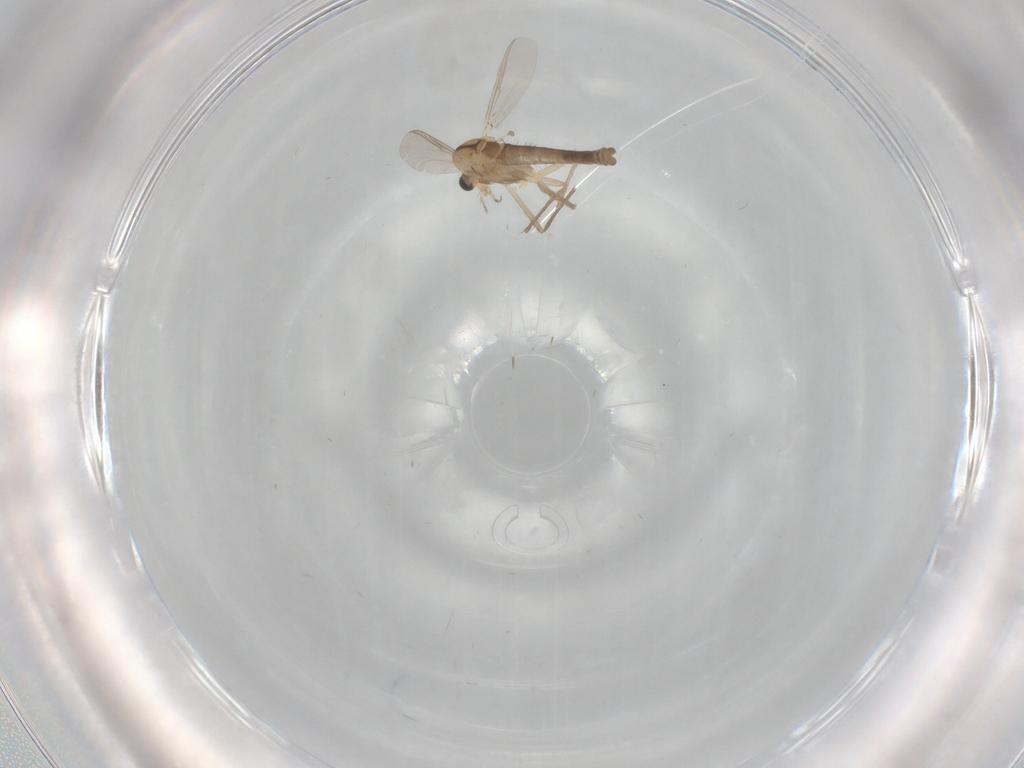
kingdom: Animalia
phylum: Arthropoda
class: Insecta
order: Diptera
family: Chironomidae
